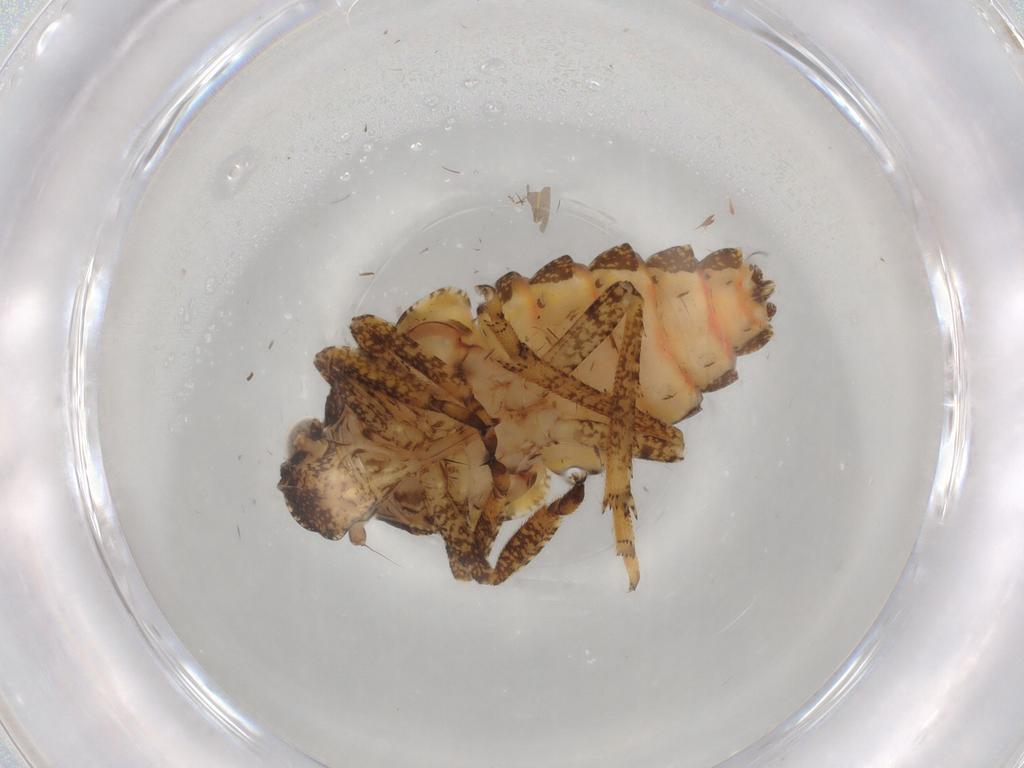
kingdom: Animalia
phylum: Arthropoda
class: Insecta
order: Hemiptera
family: Issidae
